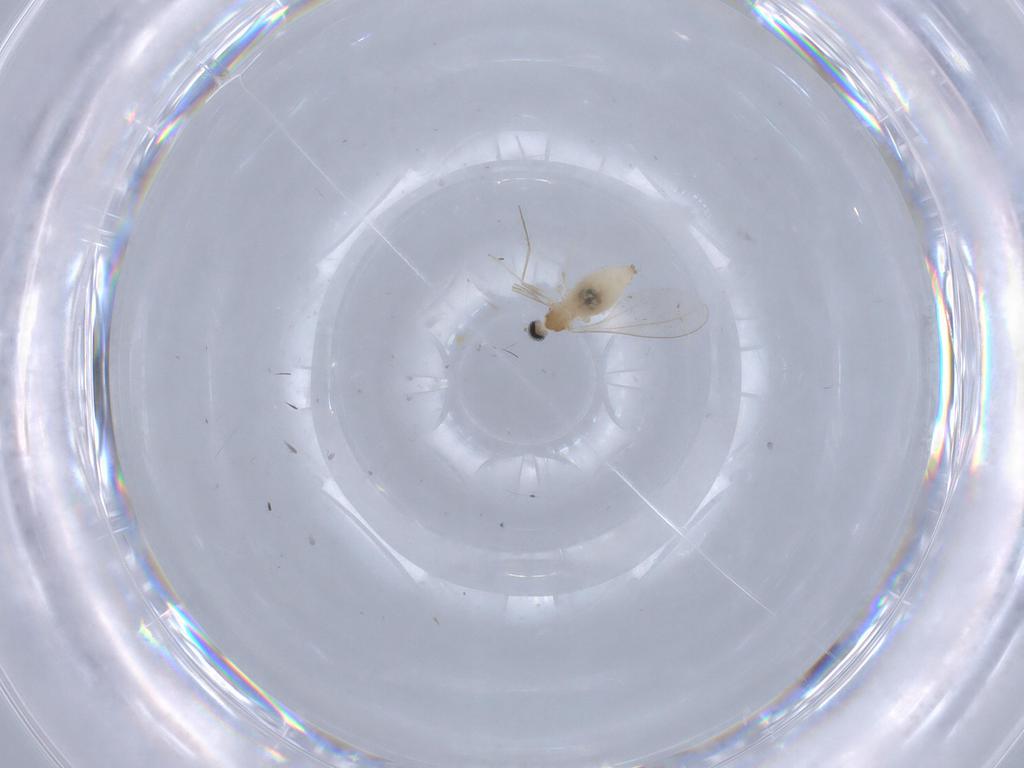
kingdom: Animalia
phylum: Arthropoda
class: Insecta
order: Diptera
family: Cecidomyiidae
